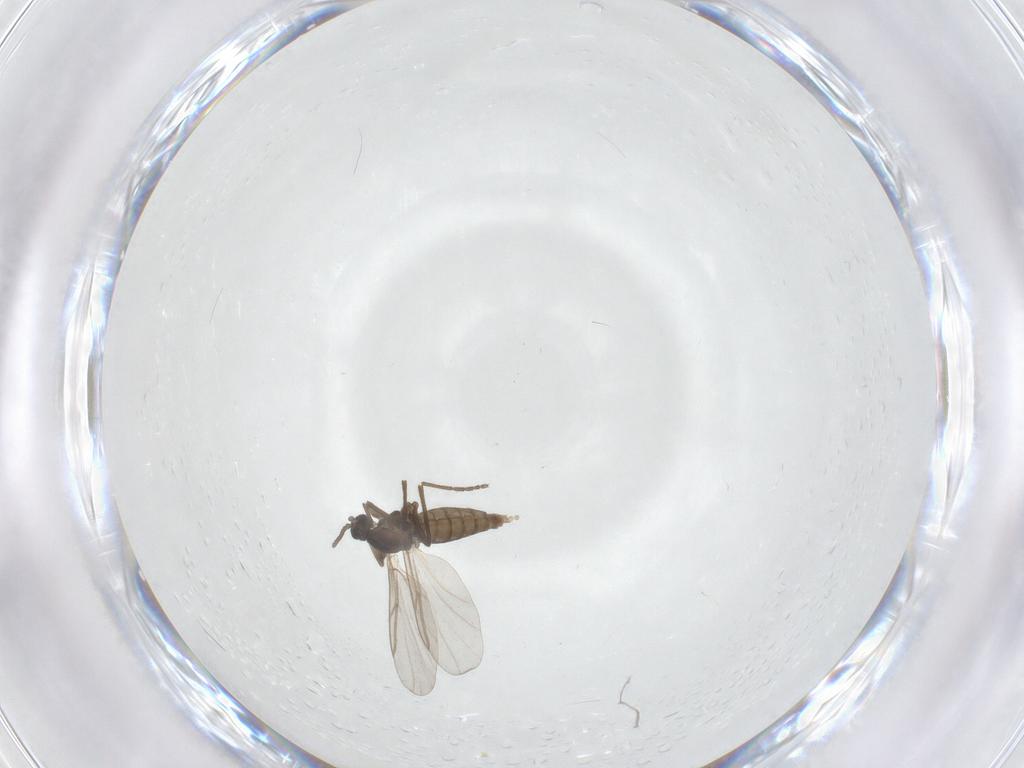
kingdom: Animalia
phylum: Arthropoda
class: Insecta
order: Diptera
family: Cecidomyiidae
